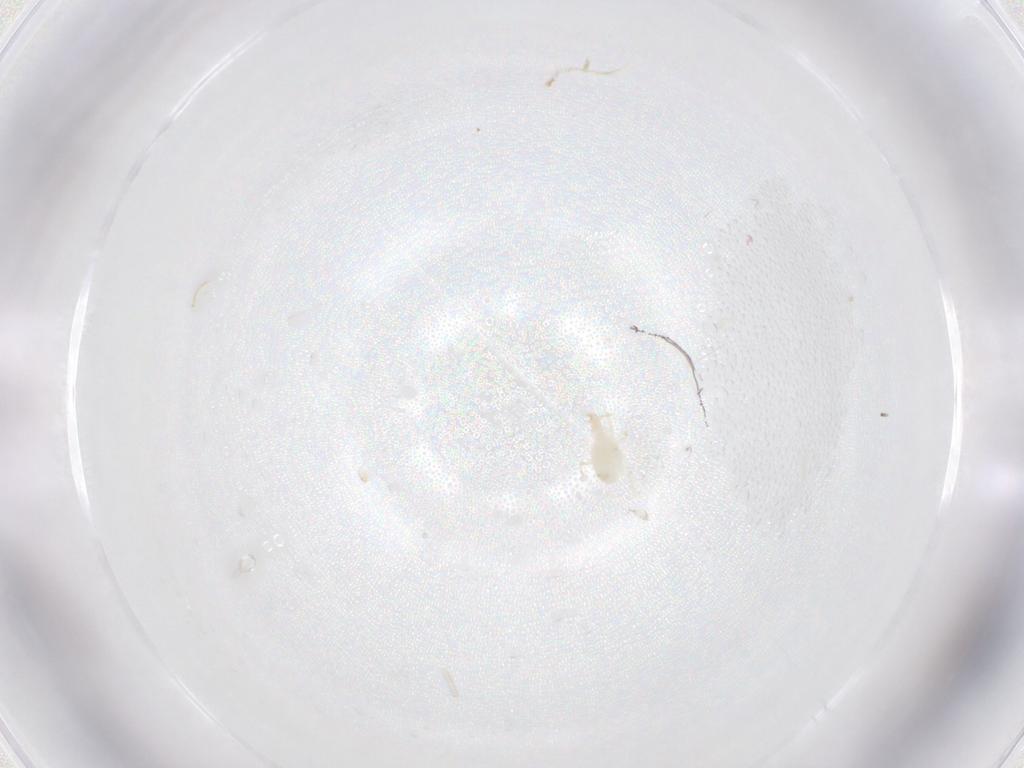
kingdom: Animalia
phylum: Arthropoda
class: Arachnida
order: Mesostigmata
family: Phytoseiidae
